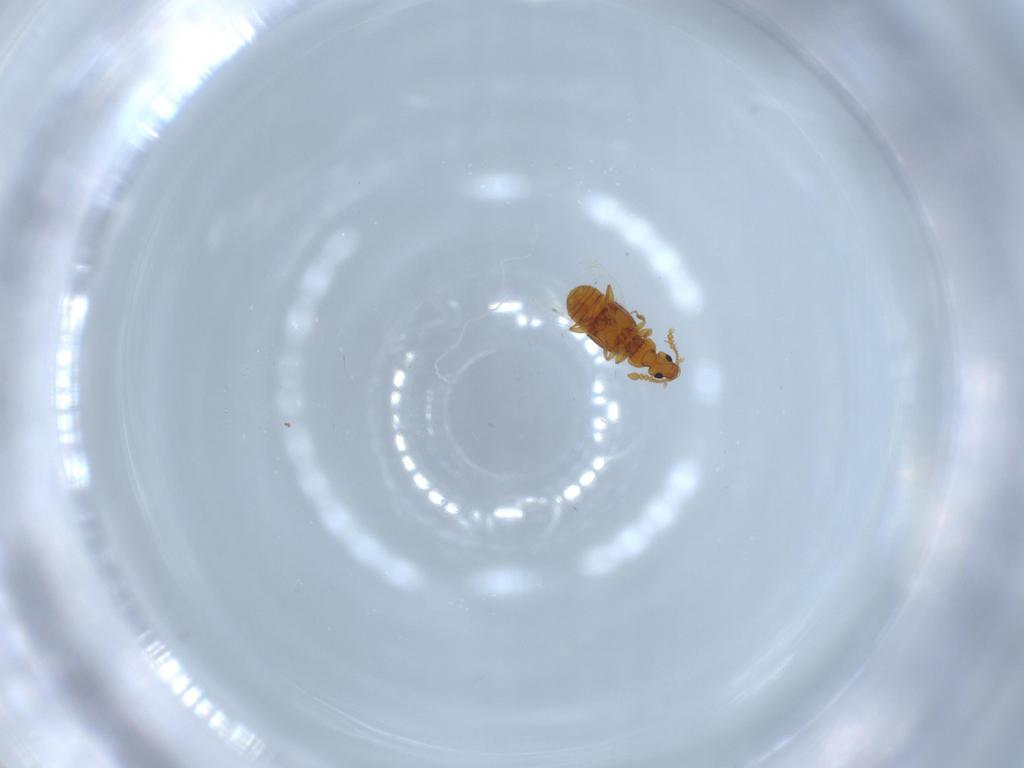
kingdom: Animalia
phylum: Arthropoda
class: Insecta
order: Coleoptera
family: Staphylinidae
